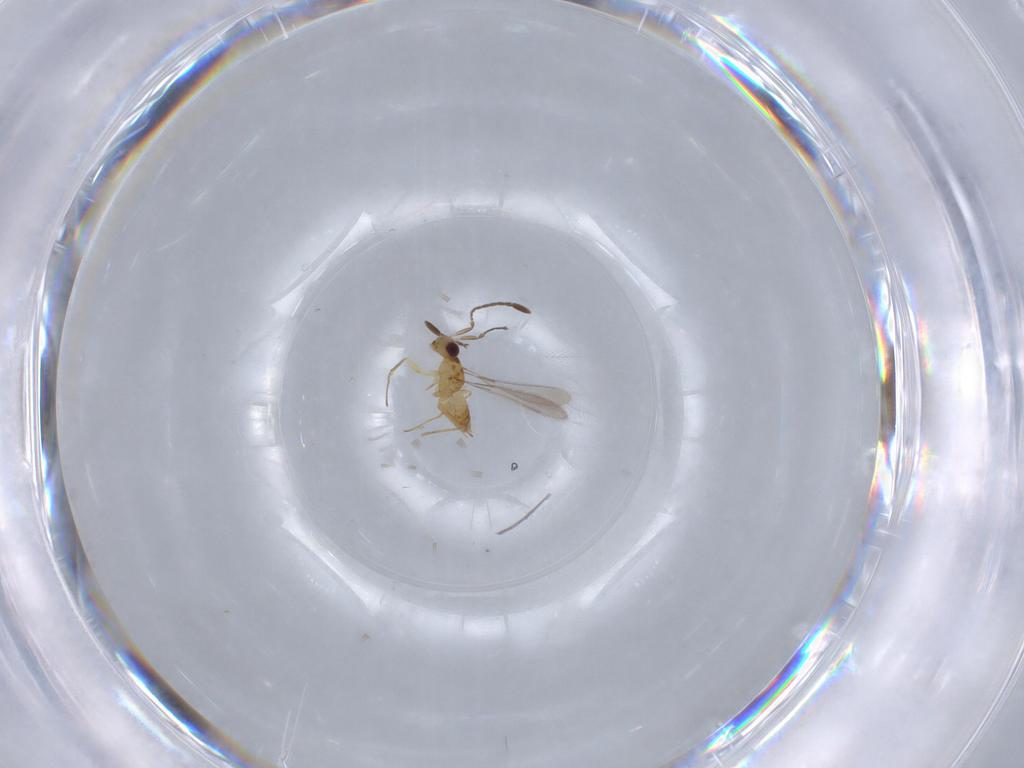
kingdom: Animalia
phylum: Arthropoda
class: Insecta
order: Hymenoptera
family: Mymaridae
